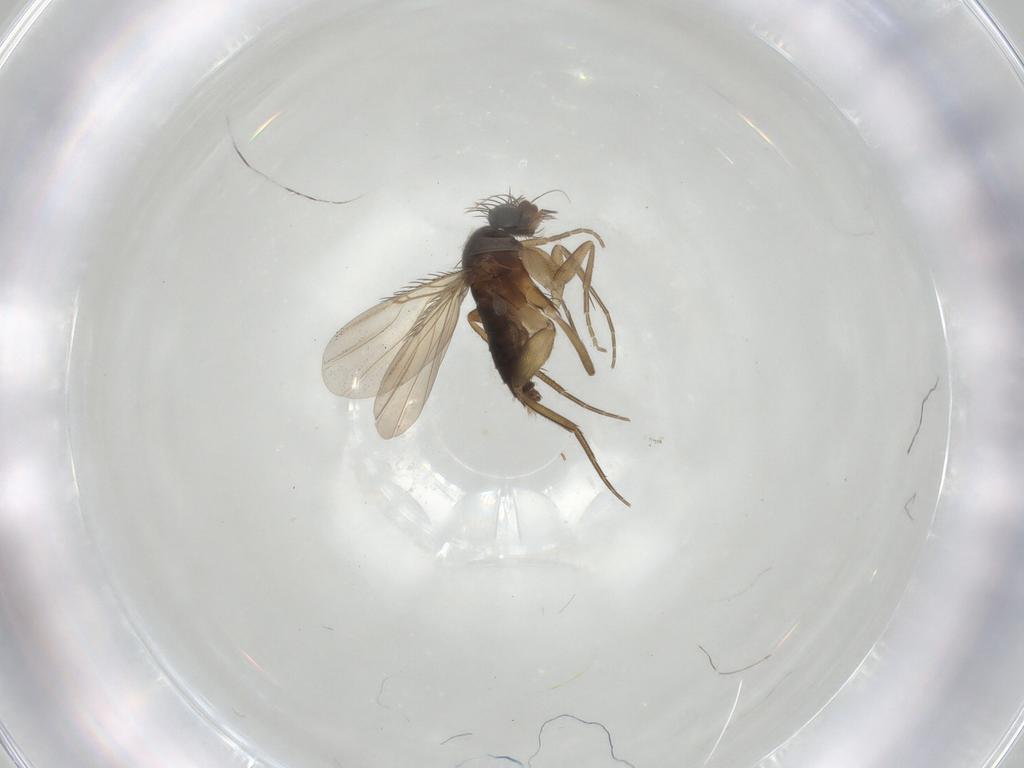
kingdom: Animalia
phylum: Arthropoda
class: Insecta
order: Diptera
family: Phoridae
